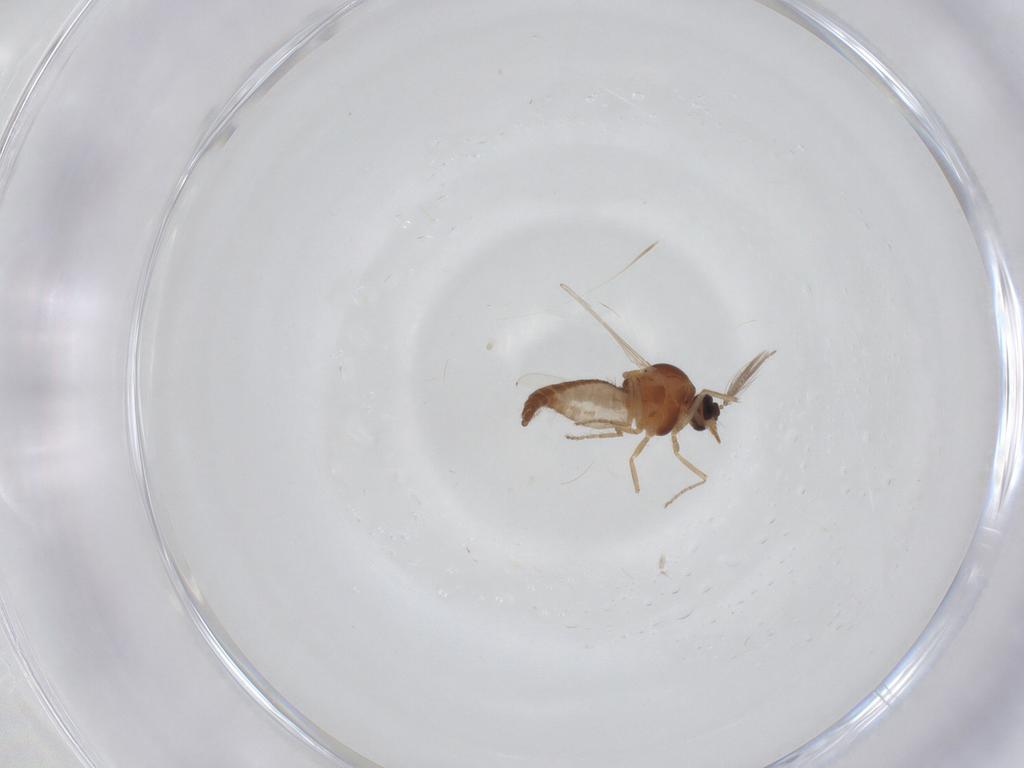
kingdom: Animalia
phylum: Arthropoda
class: Insecta
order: Diptera
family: Ceratopogonidae
